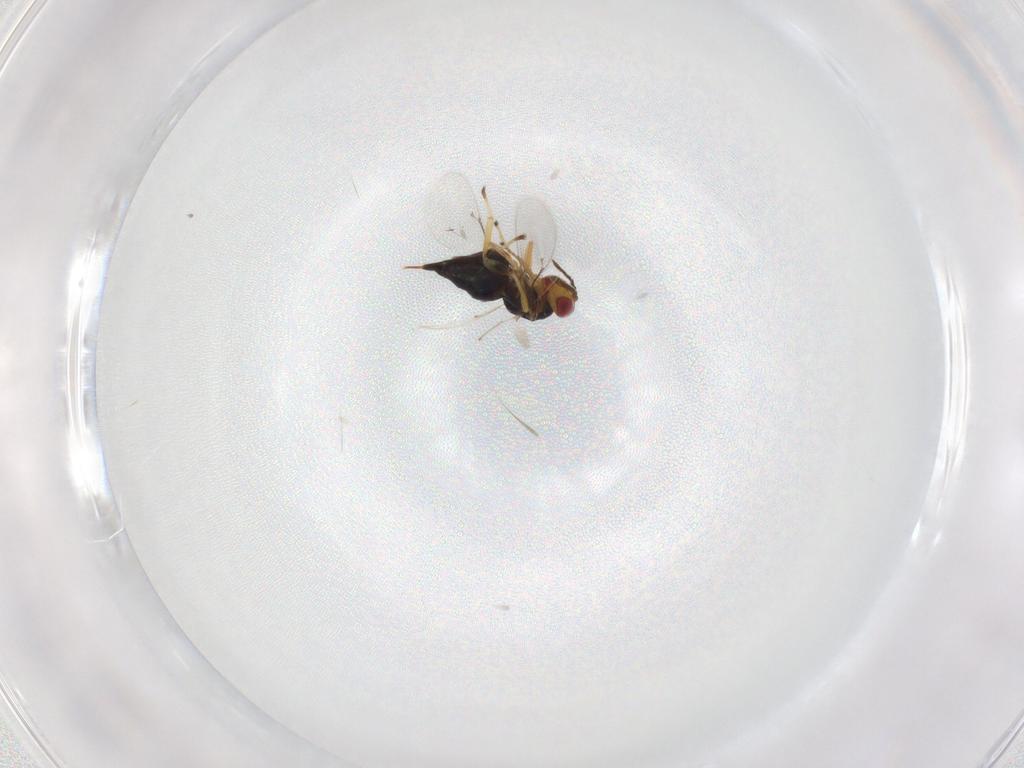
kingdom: Animalia
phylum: Arthropoda
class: Insecta
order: Hymenoptera
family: Eulophidae
